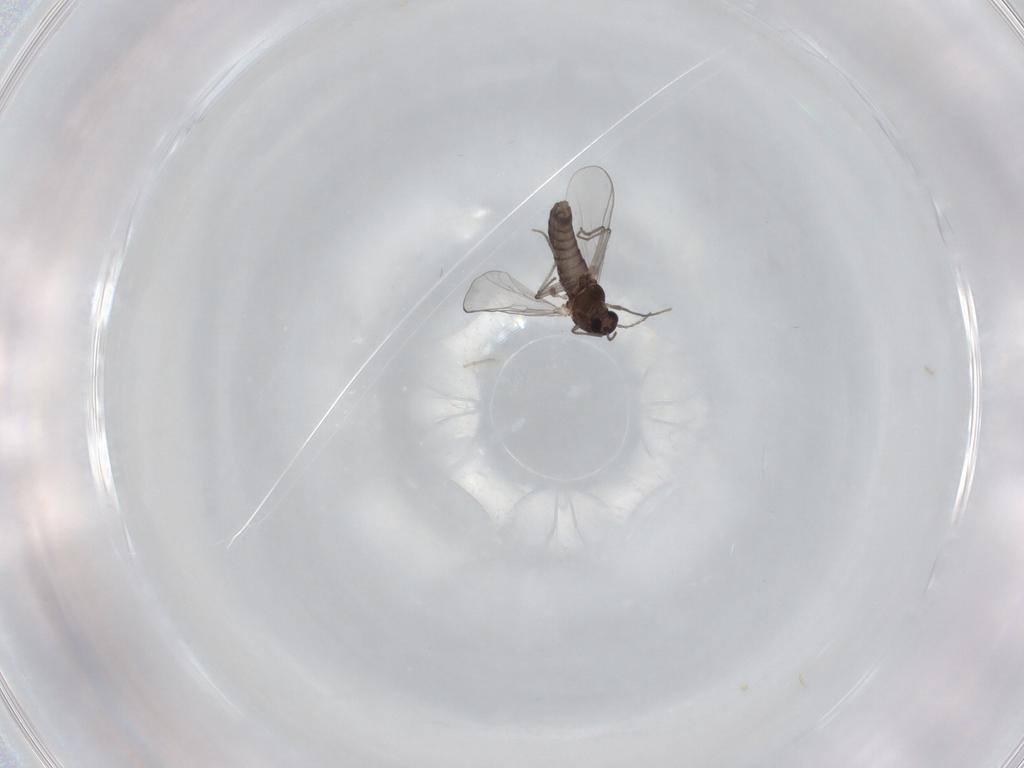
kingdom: Animalia
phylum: Arthropoda
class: Insecta
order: Diptera
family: Chironomidae
